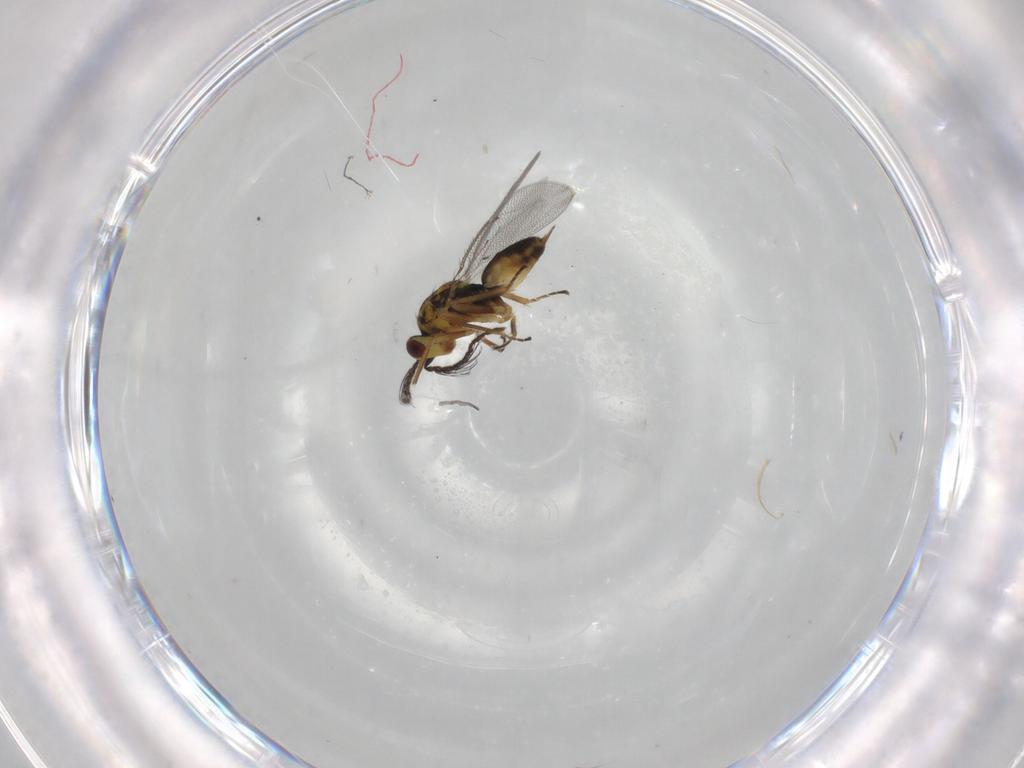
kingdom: Animalia
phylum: Arthropoda
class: Insecta
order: Hymenoptera
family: Eulophidae
